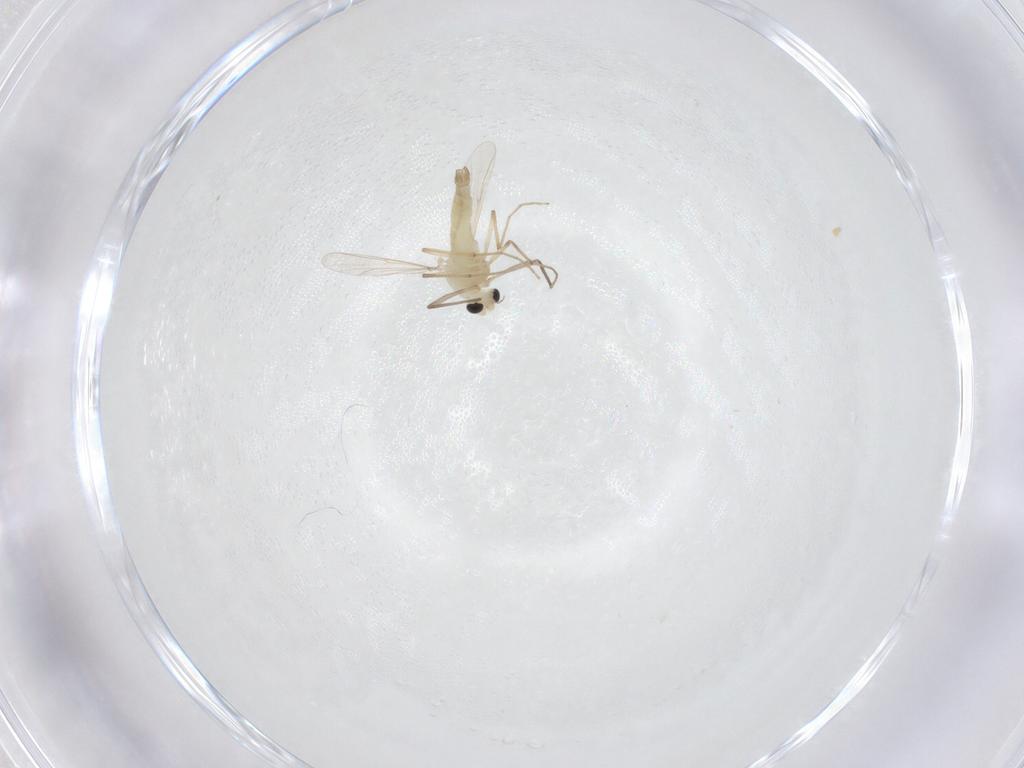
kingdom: Animalia
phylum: Arthropoda
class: Insecta
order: Diptera
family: Chironomidae
